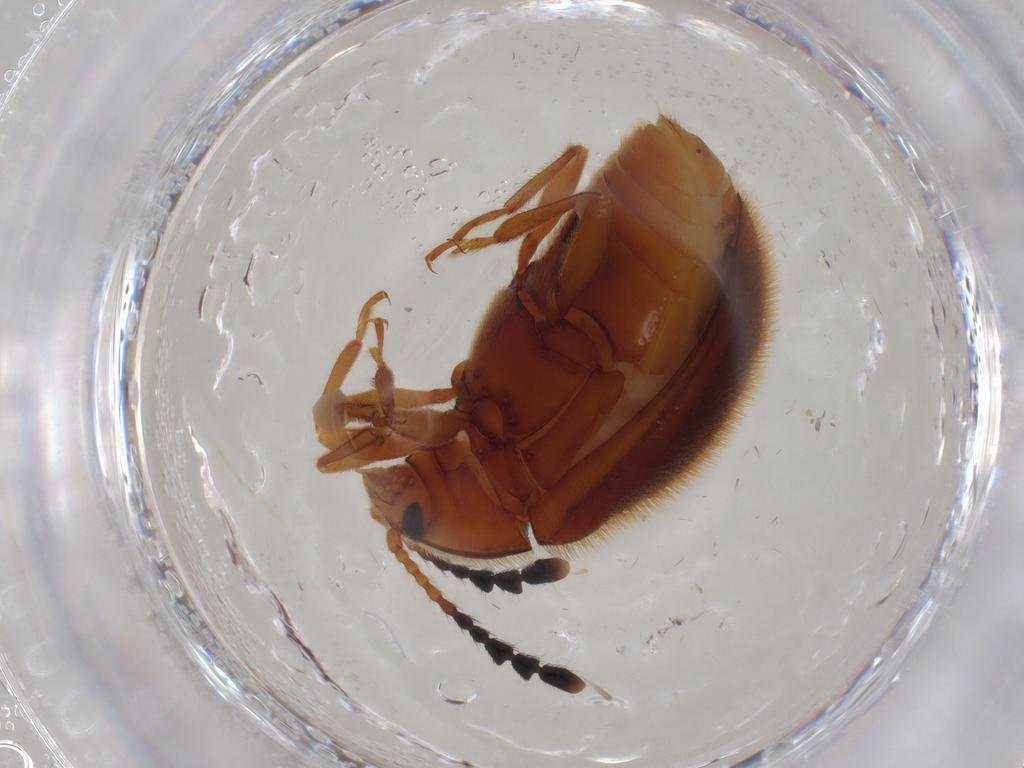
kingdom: Animalia
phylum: Arthropoda
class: Insecta
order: Coleoptera
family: Endomychidae
